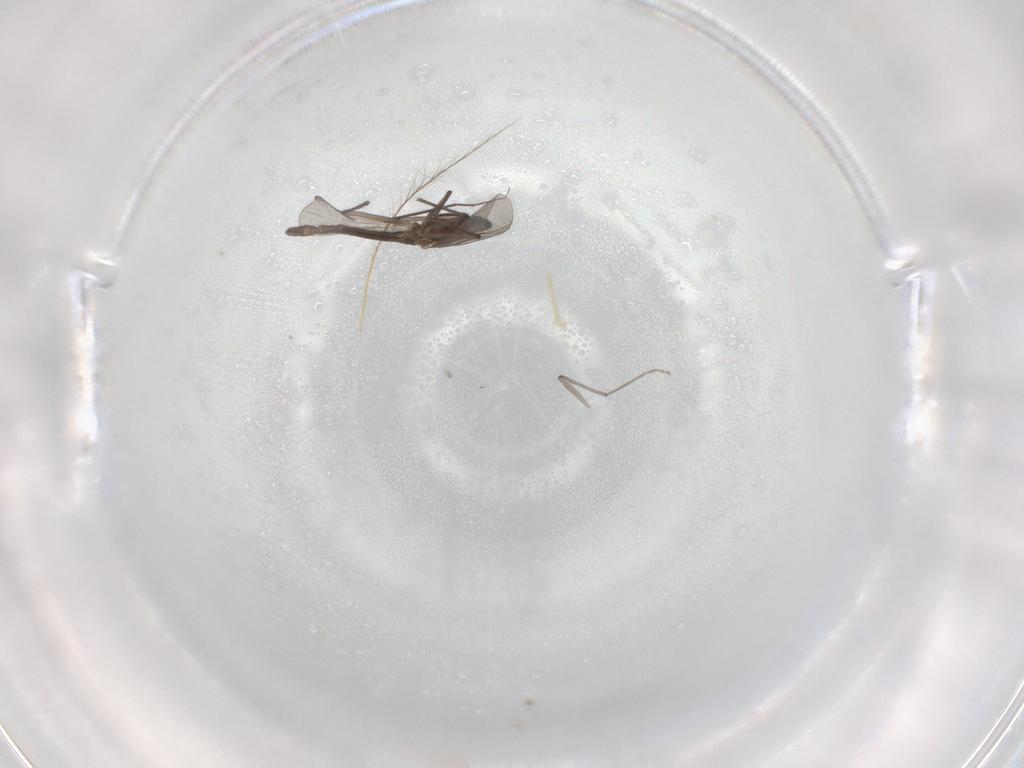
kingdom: Animalia
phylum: Arthropoda
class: Insecta
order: Diptera
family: Chironomidae
